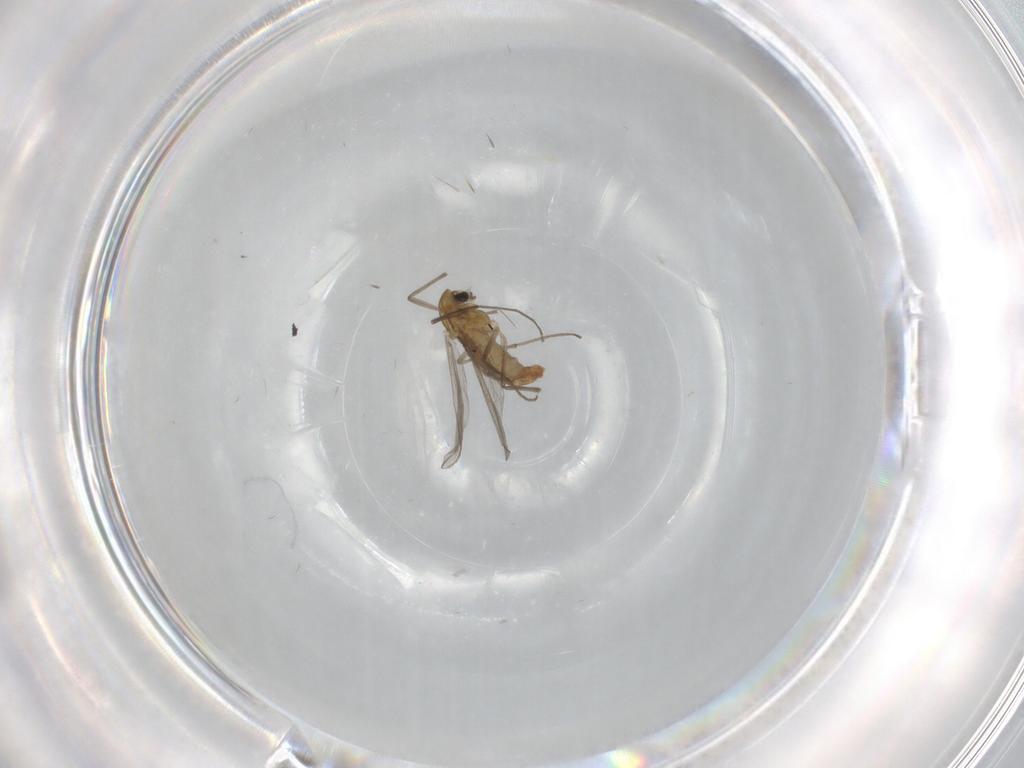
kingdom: Animalia
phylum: Arthropoda
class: Insecta
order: Diptera
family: Chironomidae
